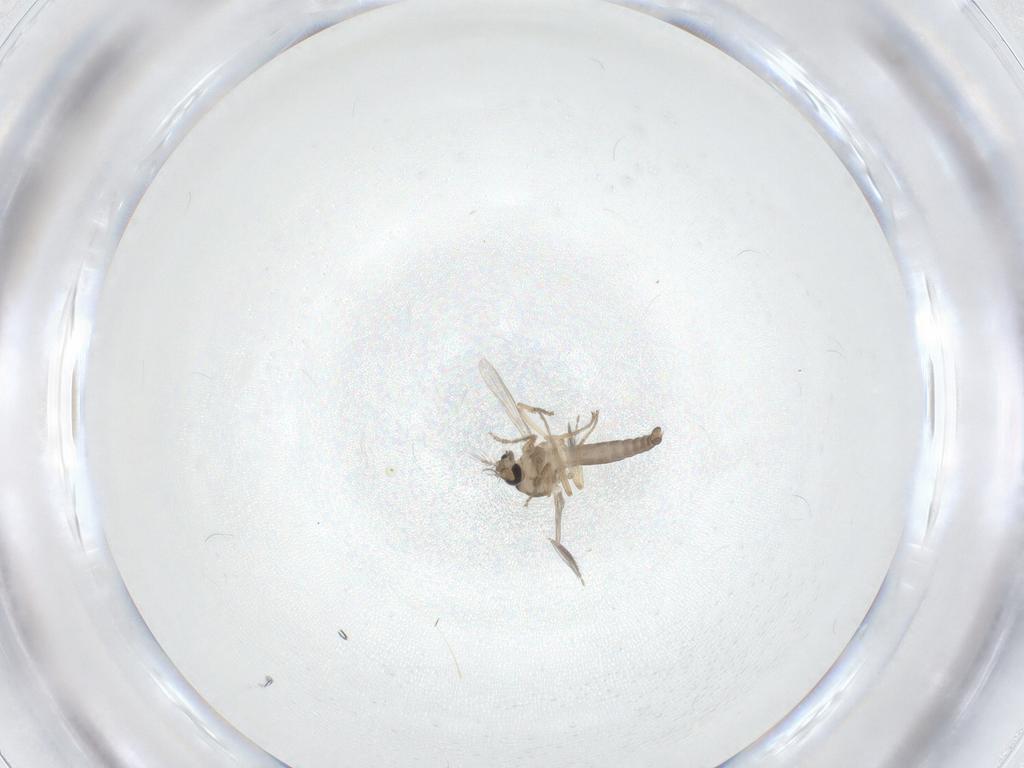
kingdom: Animalia
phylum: Arthropoda
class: Insecta
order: Diptera
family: Ceratopogonidae
